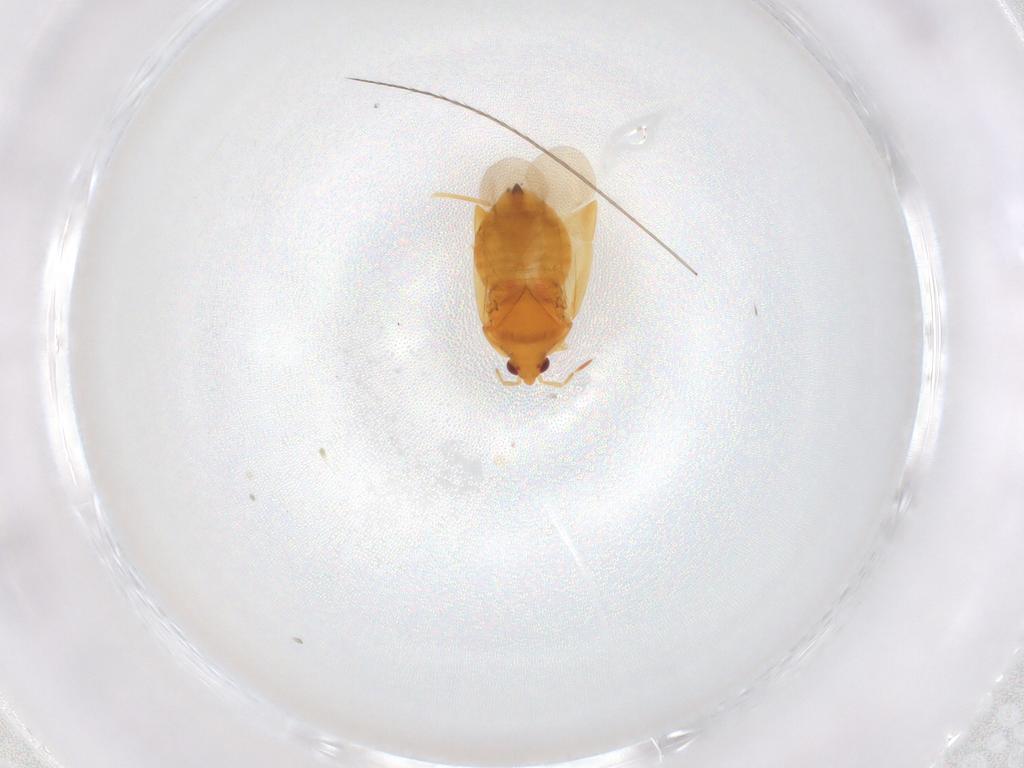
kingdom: Animalia
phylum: Arthropoda
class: Insecta
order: Hemiptera
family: Anthocoridae
